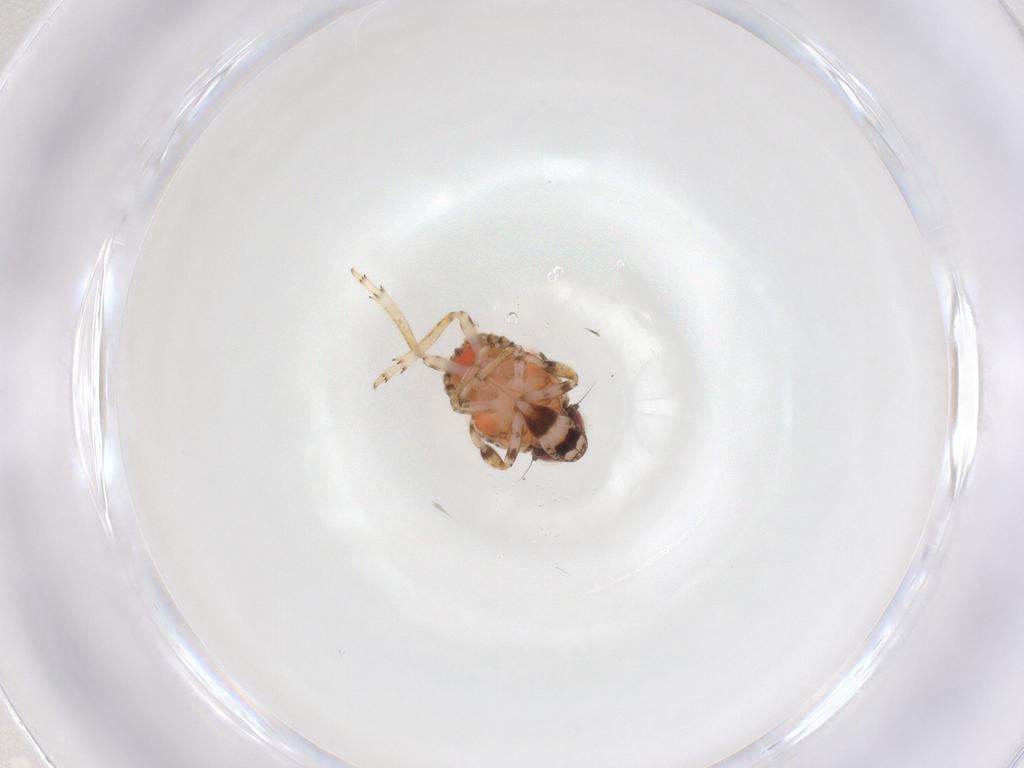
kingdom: Animalia
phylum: Arthropoda
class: Insecta
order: Hemiptera
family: Issidae
